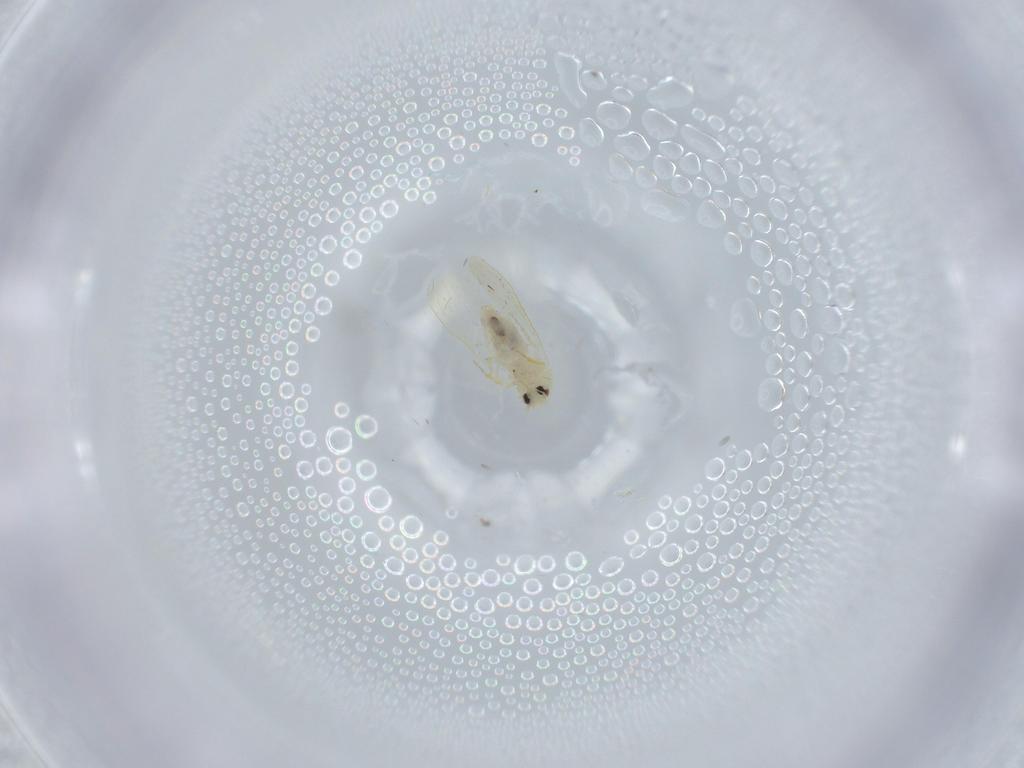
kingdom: Animalia
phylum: Arthropoda
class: Insecta
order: Hemiptera
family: Aleyrodidae
